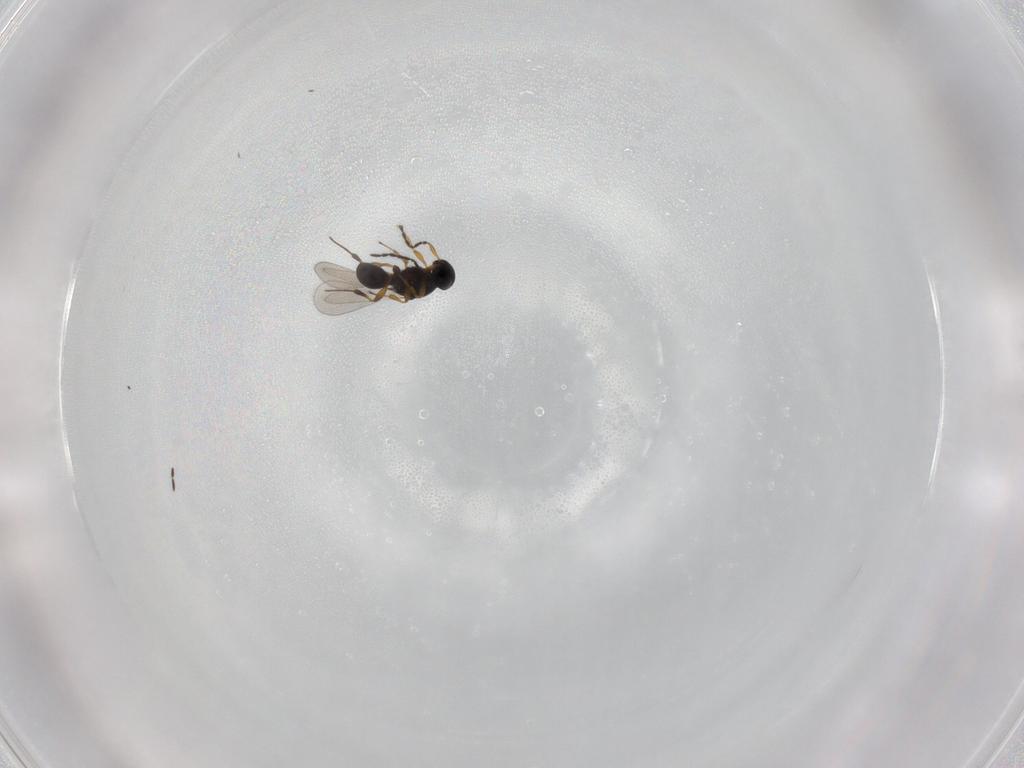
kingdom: Animalia
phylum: Arthropoda
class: Insecta
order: Hymenoptera
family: Platygastridae
